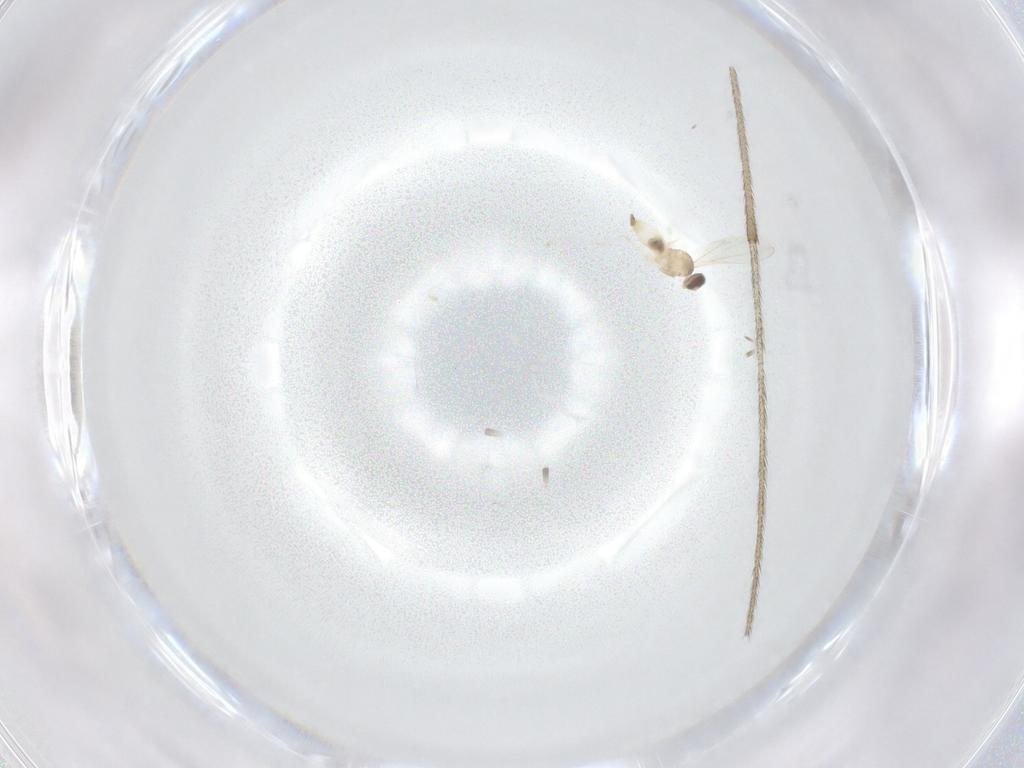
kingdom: Animalia
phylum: Arthropoda
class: Insecta
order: Diptera
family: Cecidomyiidae
